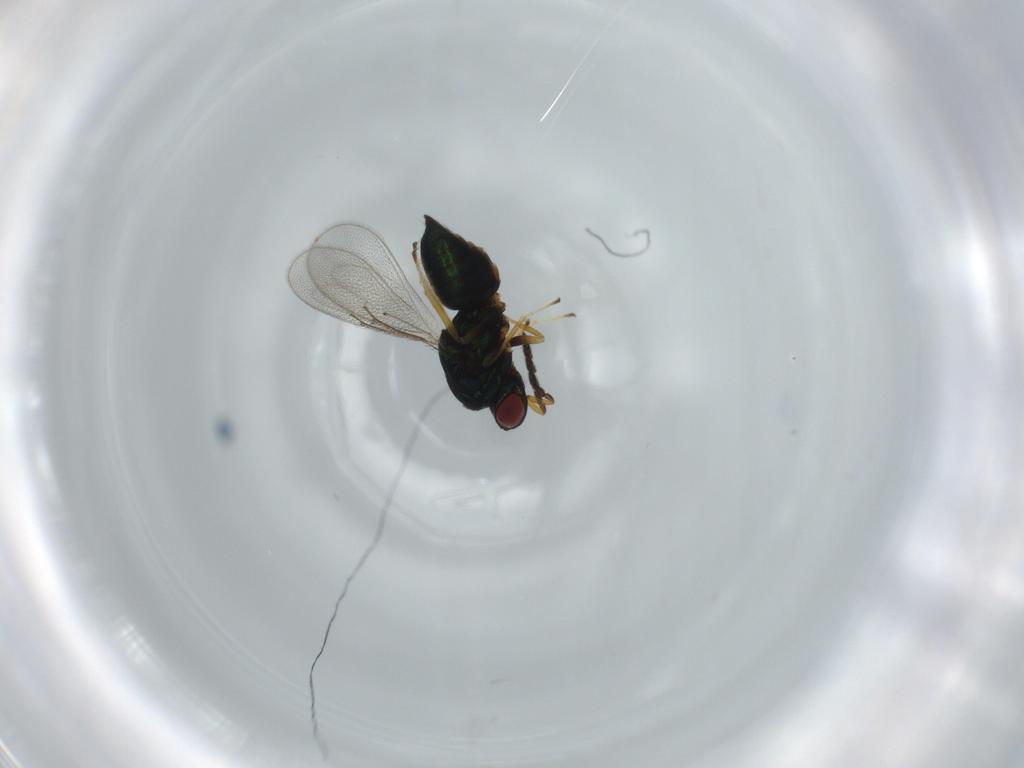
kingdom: Animalia
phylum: Arthropoda
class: Insecta
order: Hymenoptera
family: Eulophidae
